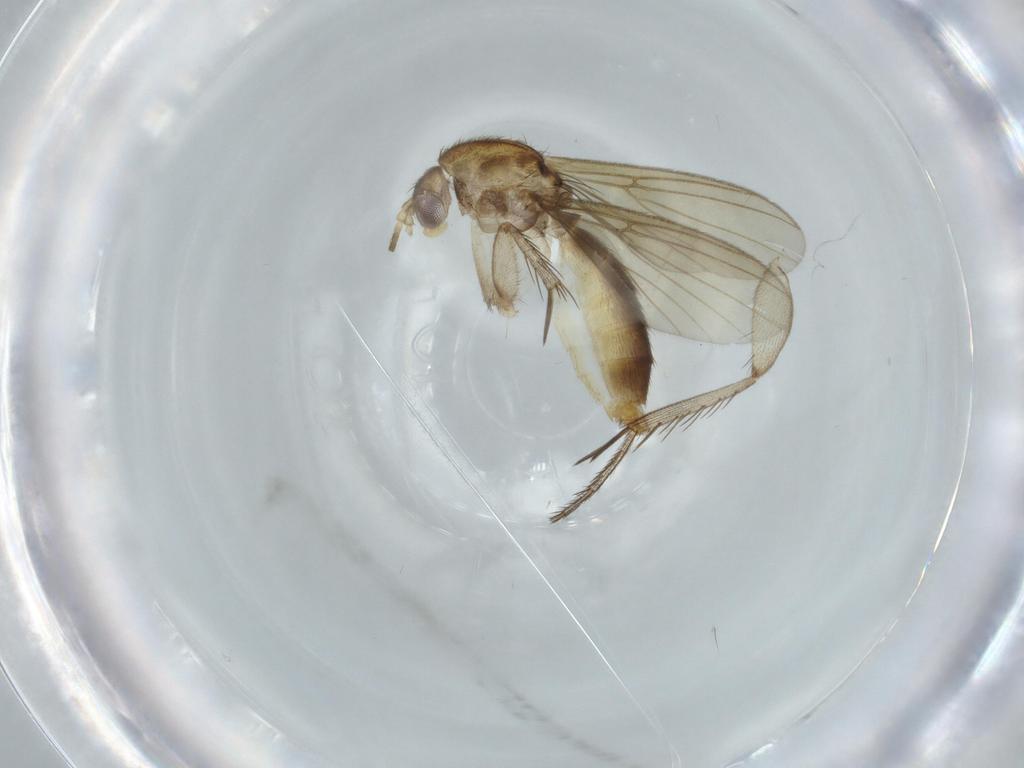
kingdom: Animalia
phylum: Arthropoda
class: Insecta
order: Diptera
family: Mycetophilidae
